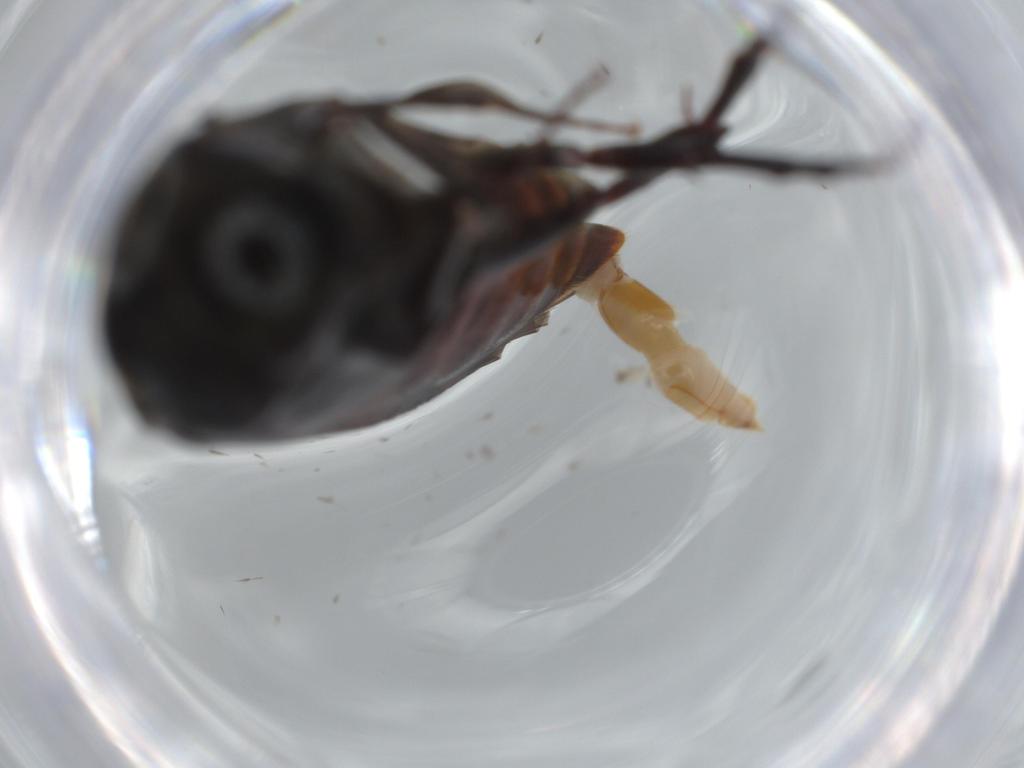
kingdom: Animalia
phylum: Arthropoda
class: Insecta
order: Coleoptera
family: Mordellidae
